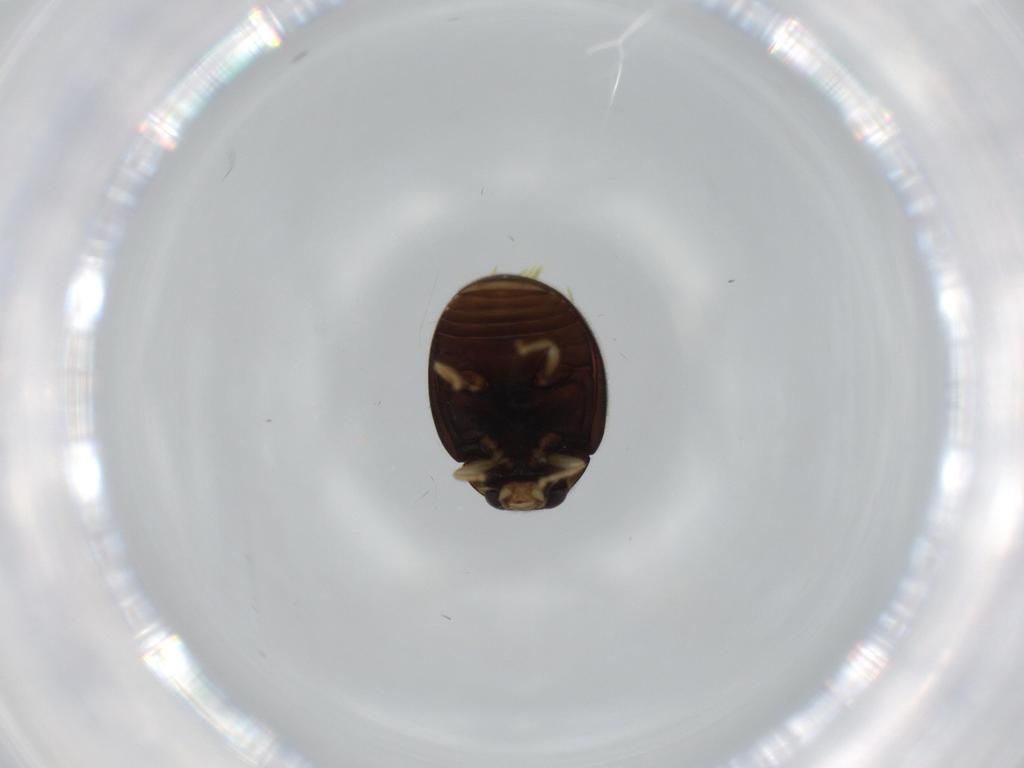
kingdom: Animalia
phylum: Arthropoda
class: Insecta
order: Coleoptera
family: Coccinellidae
